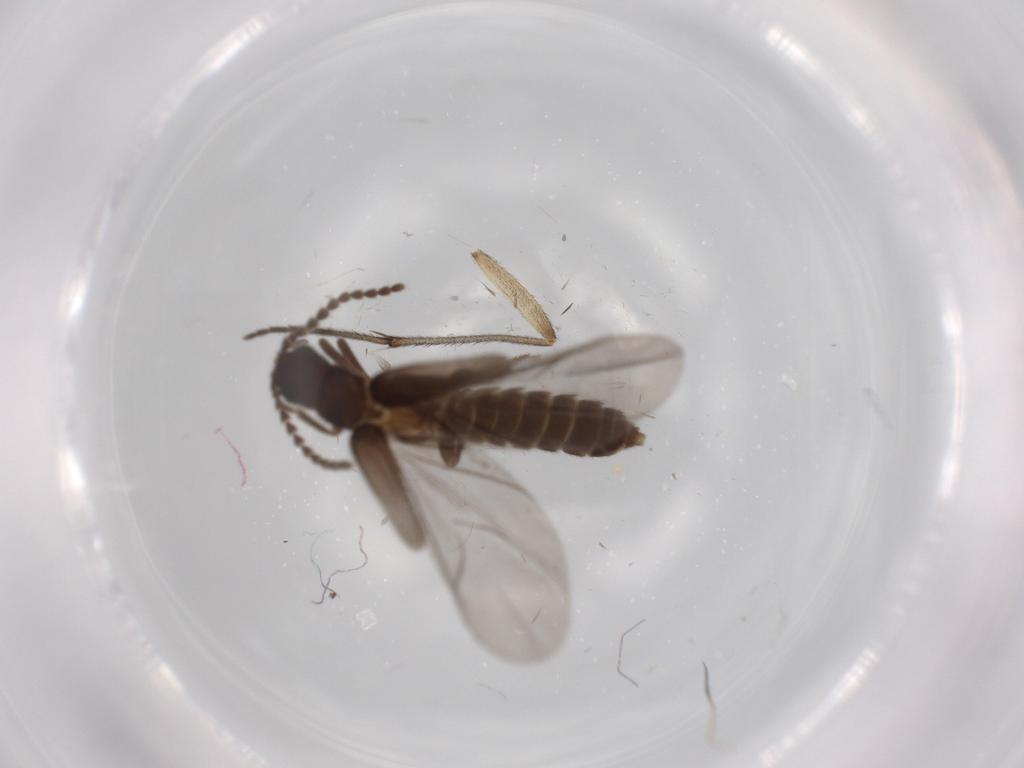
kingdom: Animalia
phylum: Arthropoda
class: Insecta
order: Coleoptera
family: Omethidae
